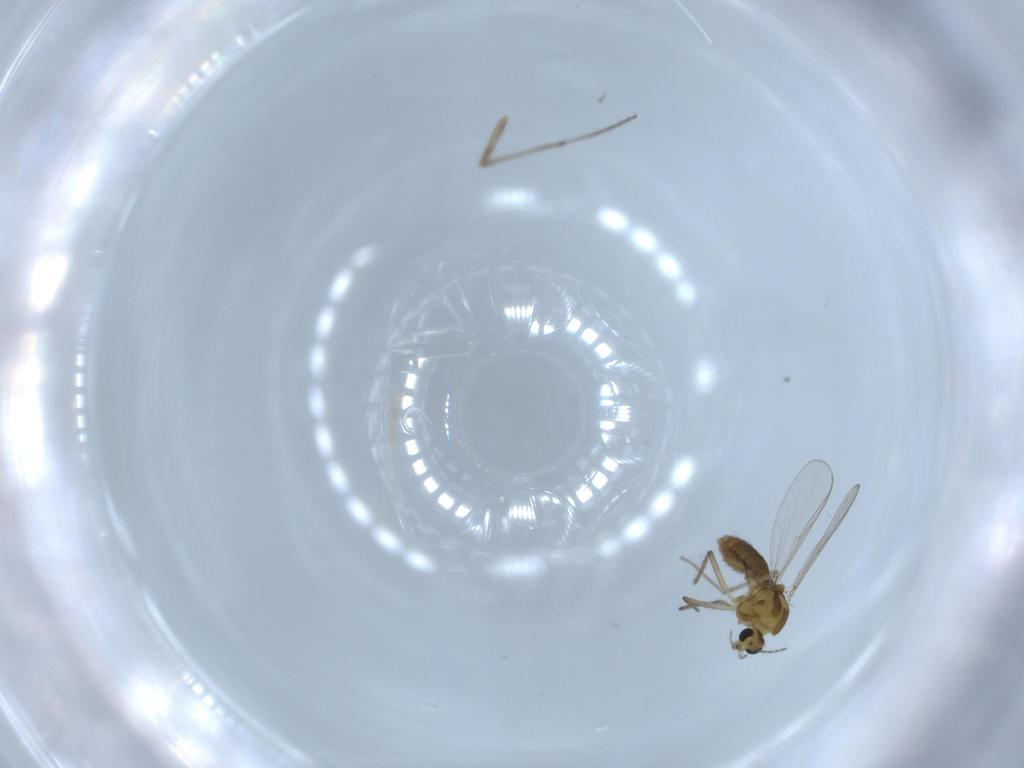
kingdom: Animalia
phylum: Arthropoda
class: Insecta
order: Diptera
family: Chironomidae
